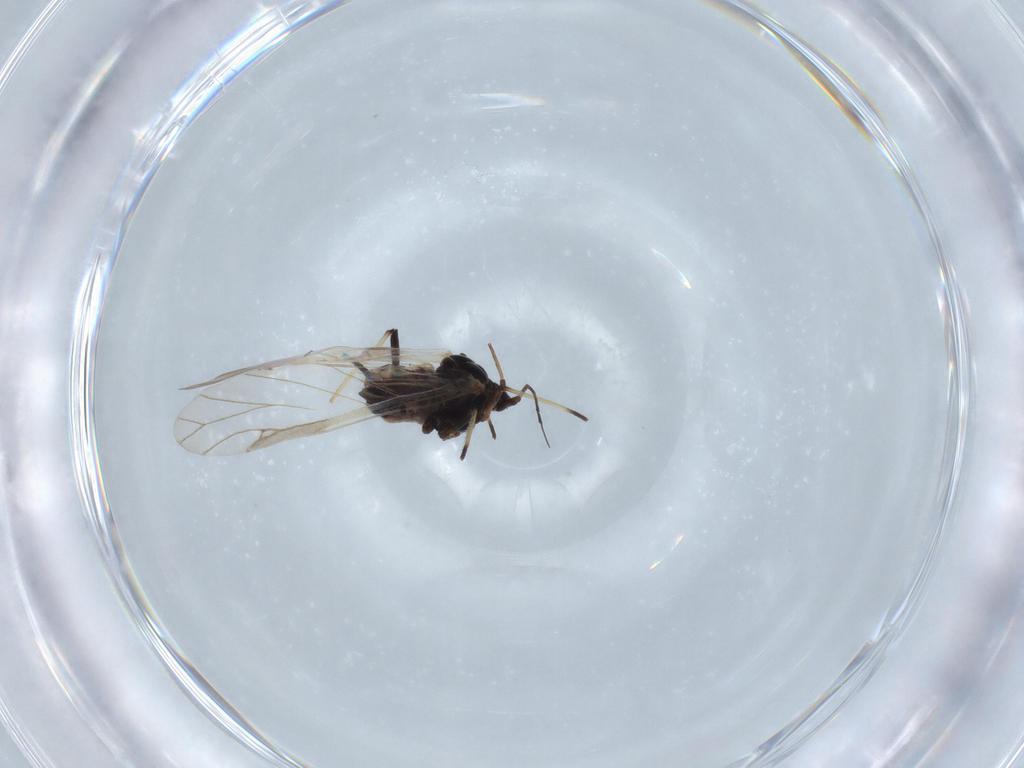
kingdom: Animalia
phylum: Arthropoda
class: Insecta
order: Hemiptera
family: Aphididae
